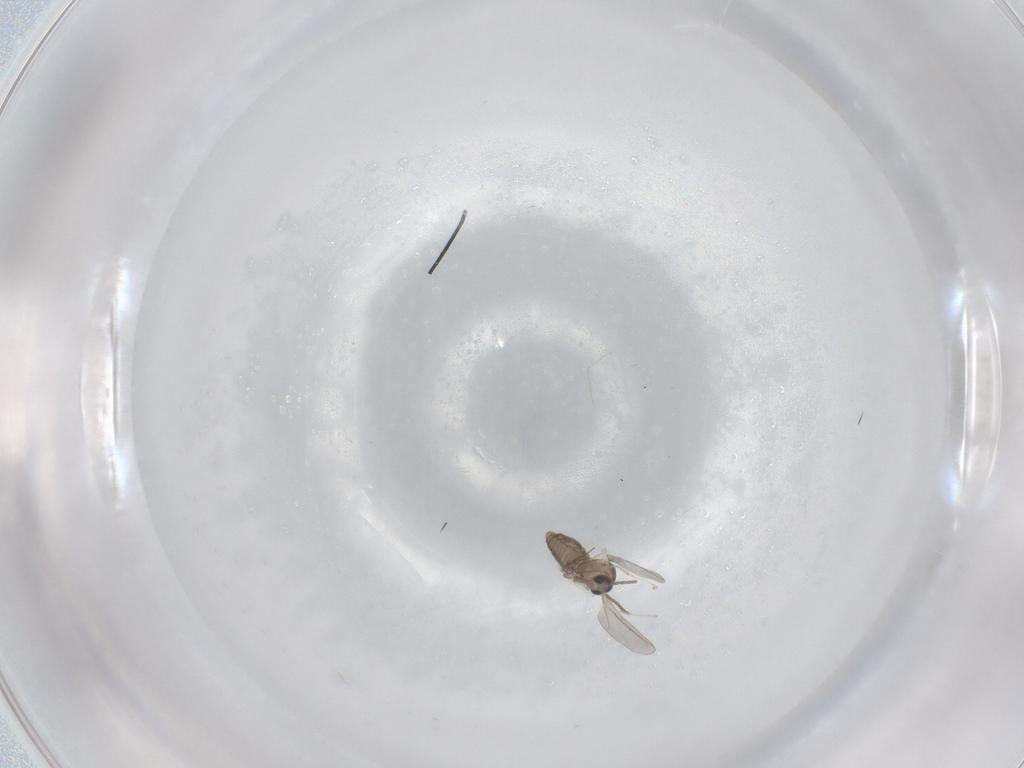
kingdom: Animalia
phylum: Arthropoda
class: Insecta
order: Diptera
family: Cecidomyiidae
